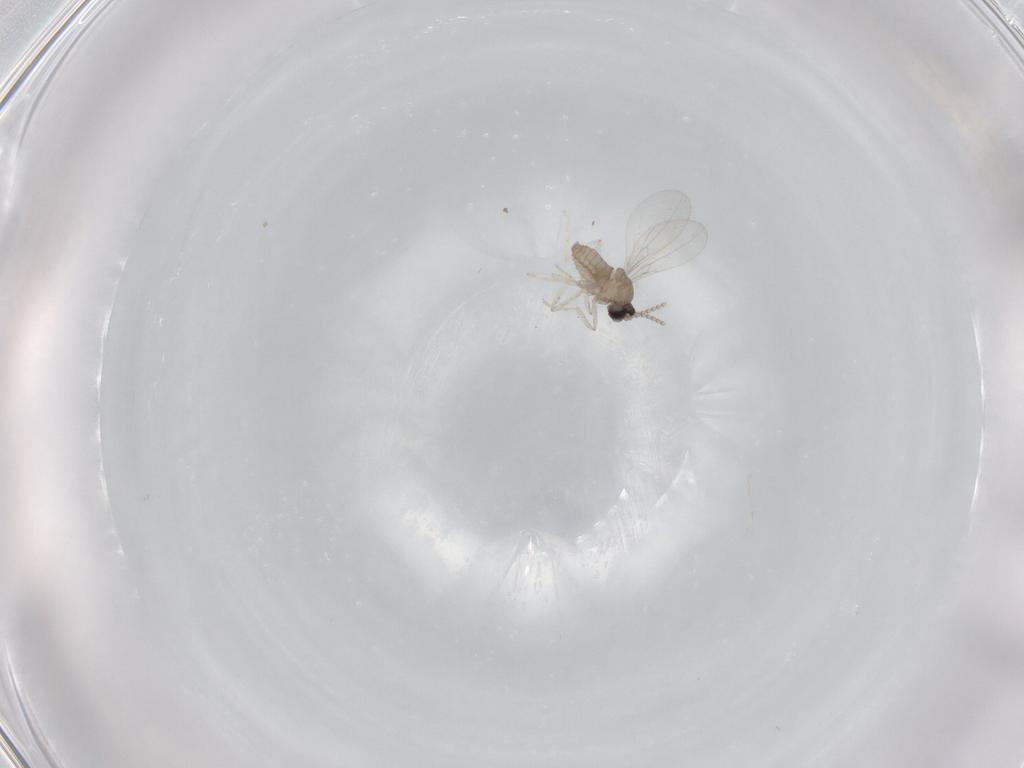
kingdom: Animalia
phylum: Arthropoda
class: Insecta
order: Diptera
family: Cecidomyiidae
